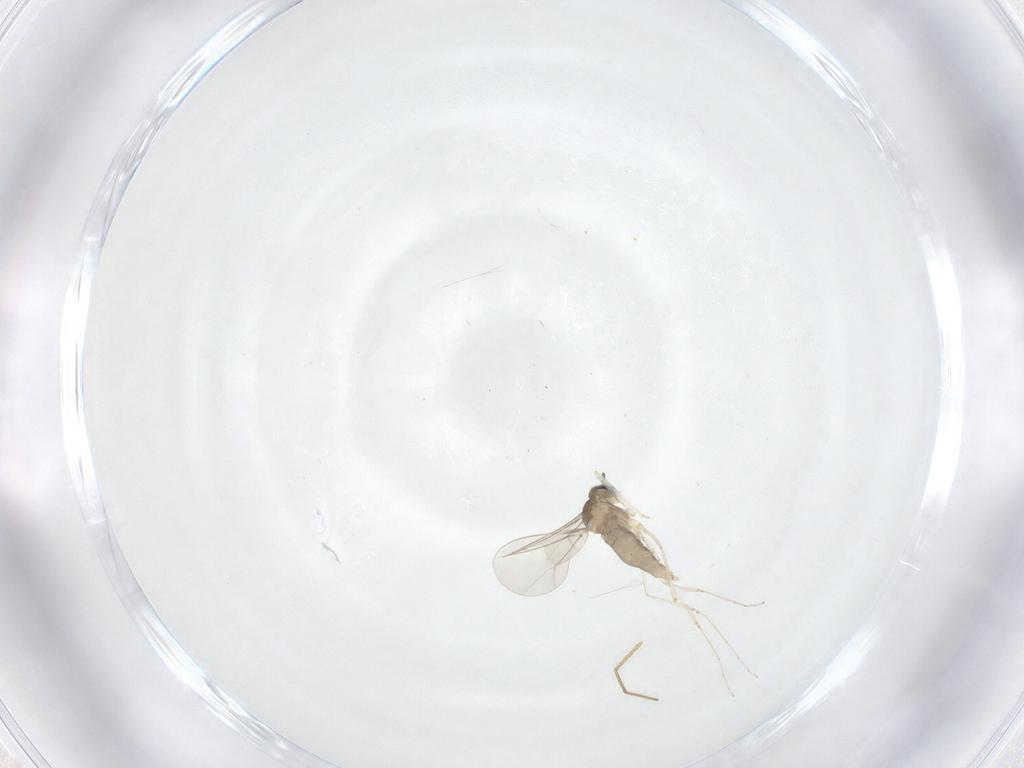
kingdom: Animalia
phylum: Arthropoda
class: Insecta
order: Diptera
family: Cecidomyiidae
